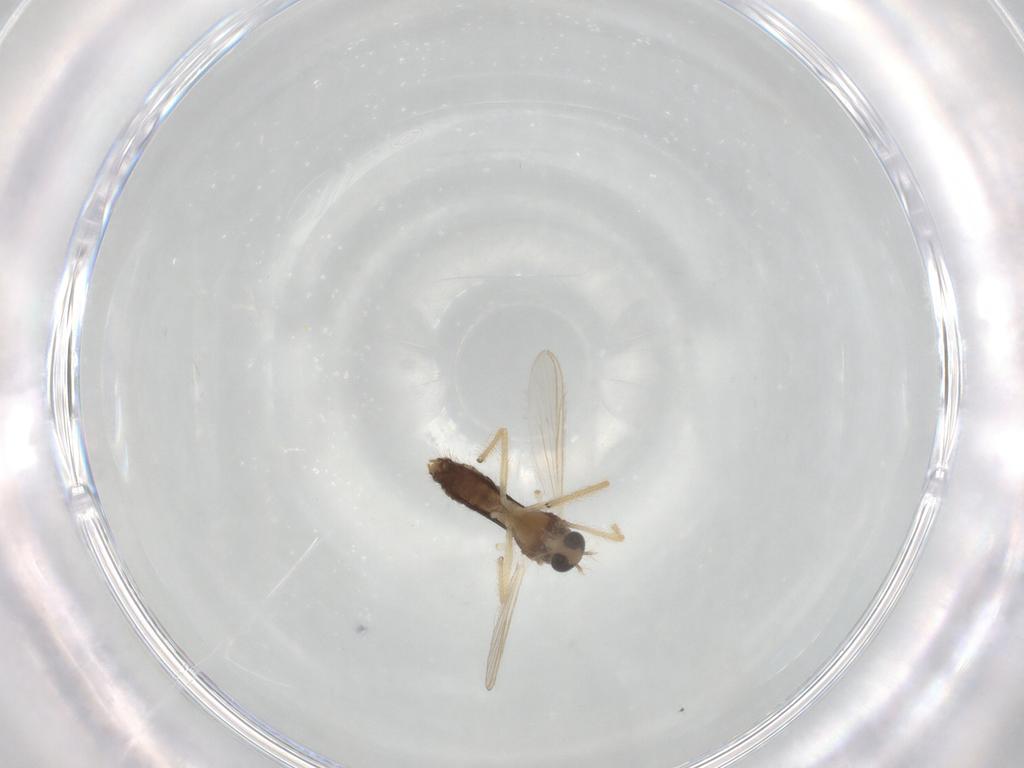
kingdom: Animalia
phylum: Arthropoda
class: Insecta
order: Diptera
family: Chironomidae
